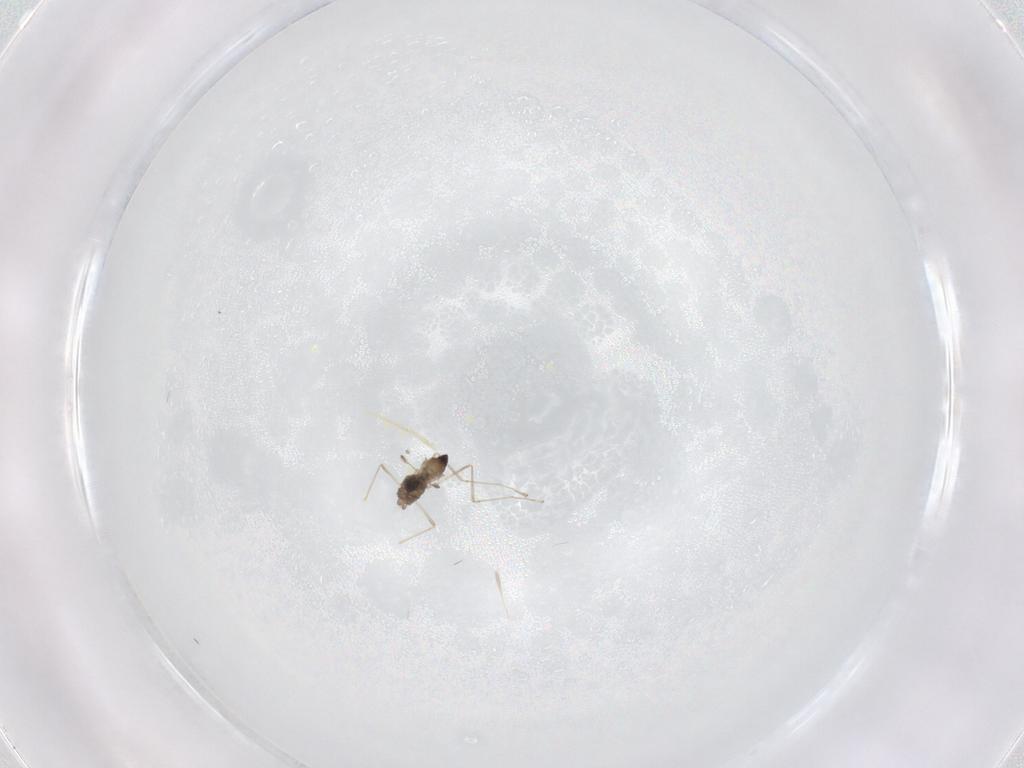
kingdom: Animalia
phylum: Arthropoda
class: Insecta
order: Diptera
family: Cecidomyiidae
